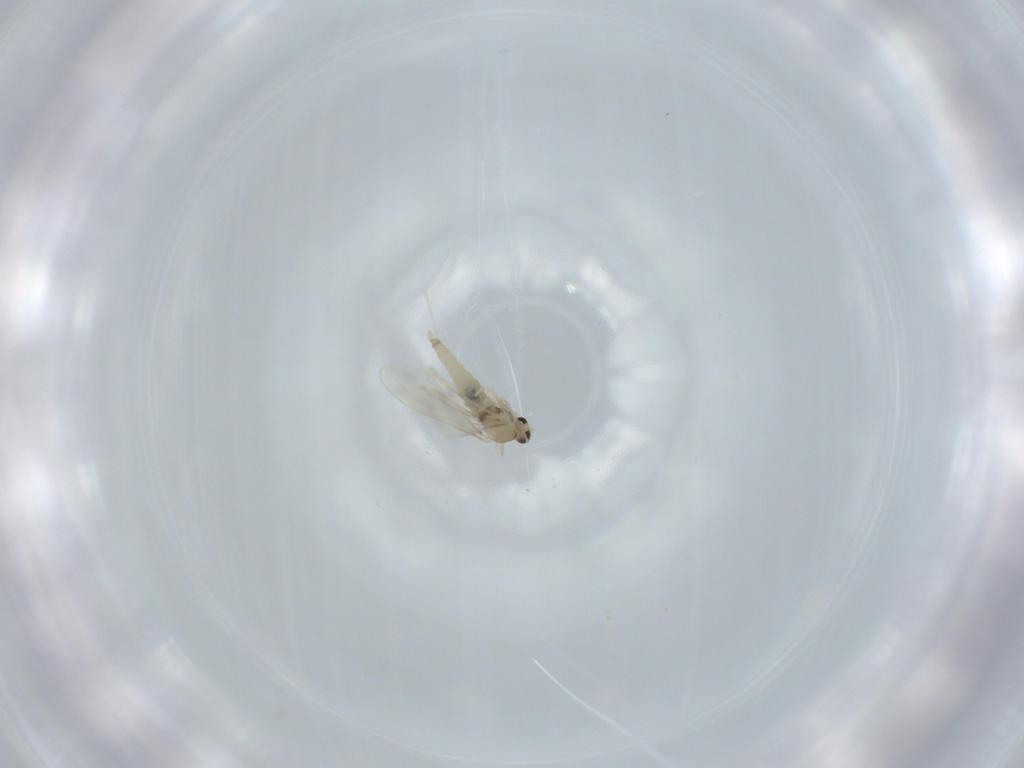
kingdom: Animalia
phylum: Arthropoda
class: Insecta
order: Diptera
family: Cecidomyiidae
